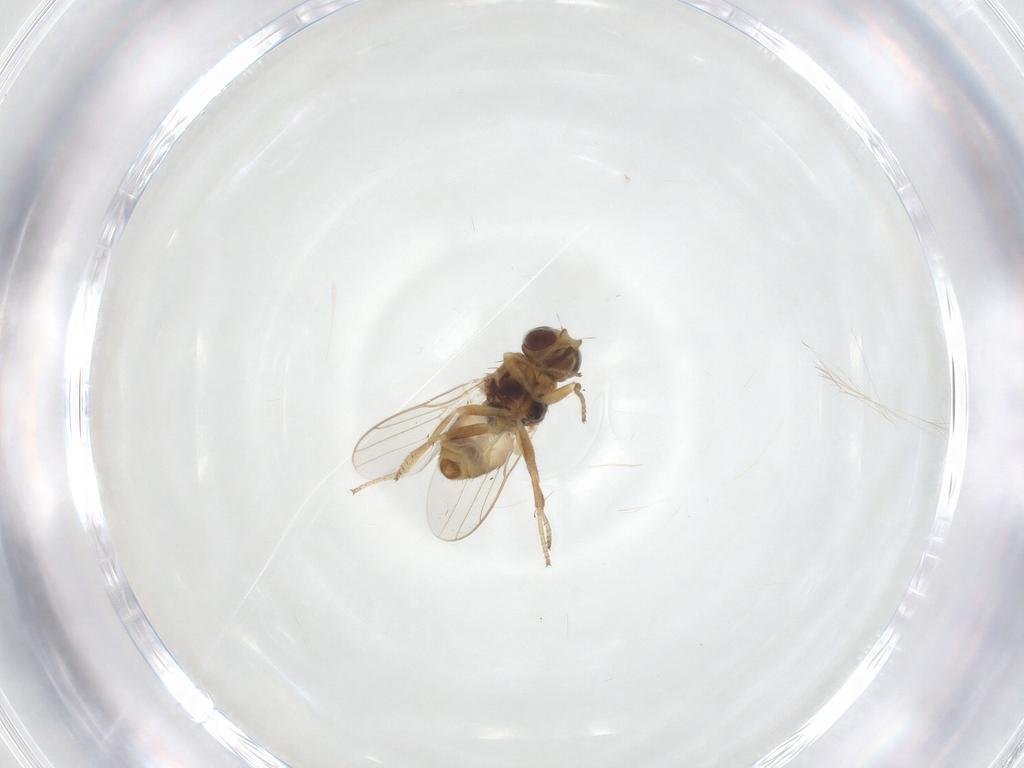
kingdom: Animalia
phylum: Arthropoda
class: Insecta
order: Diptera
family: Chloropidae
